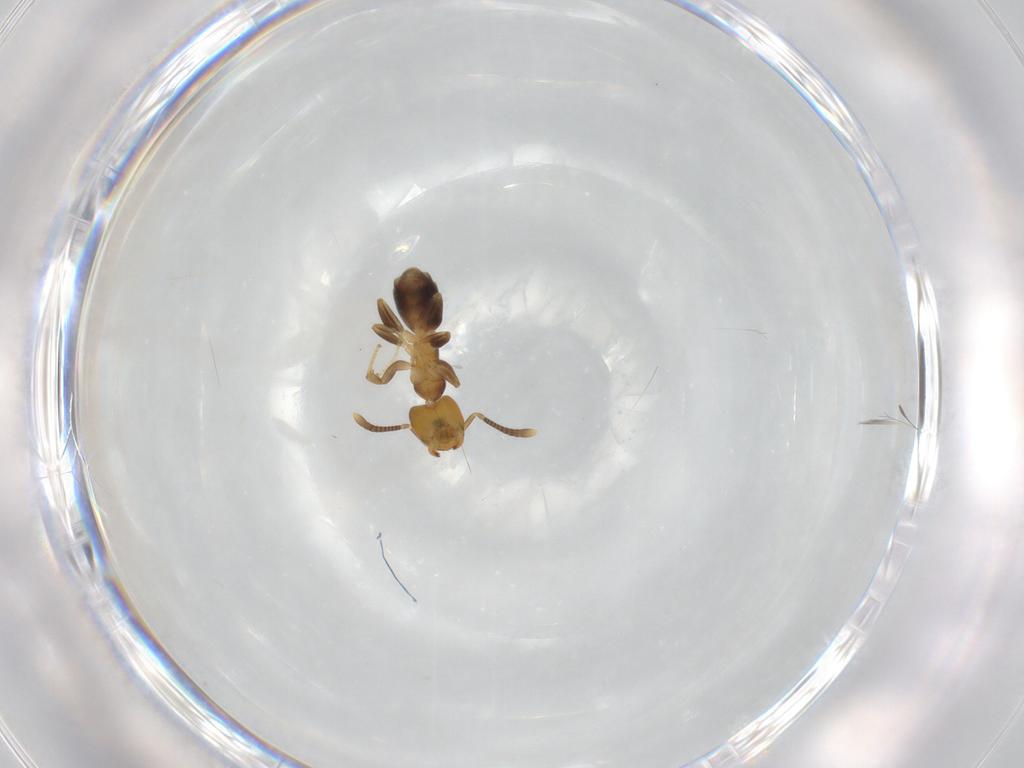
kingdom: Animalia
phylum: Arthropoda
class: Insecta
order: Hymenoptera
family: Formicidae
